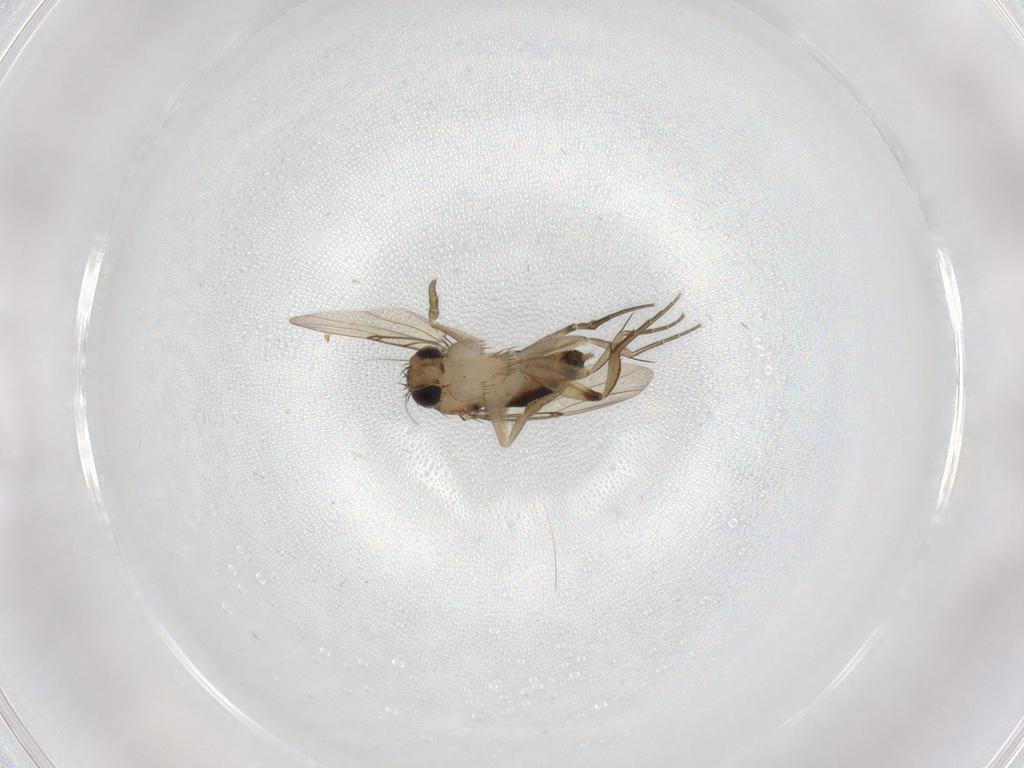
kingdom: Animalia
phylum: Arthropoda
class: Insecta
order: Diptera
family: Phoridae
